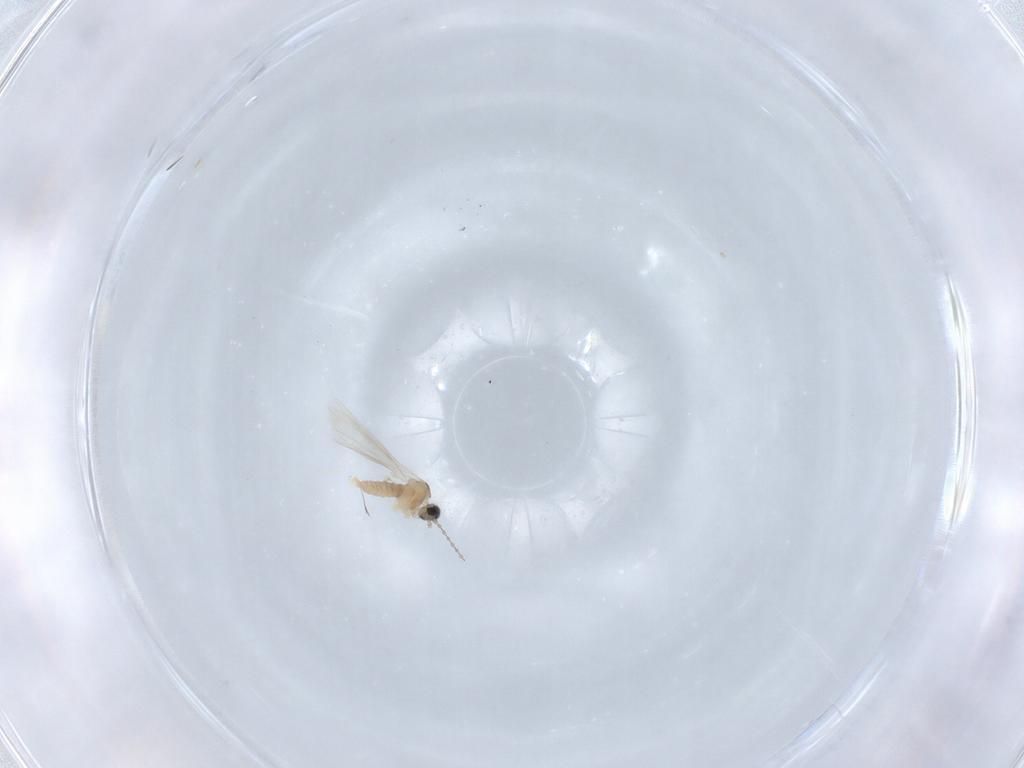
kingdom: Animalia
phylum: Arthropoda
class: Insecta
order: Diptera
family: Cecidomyiidae
